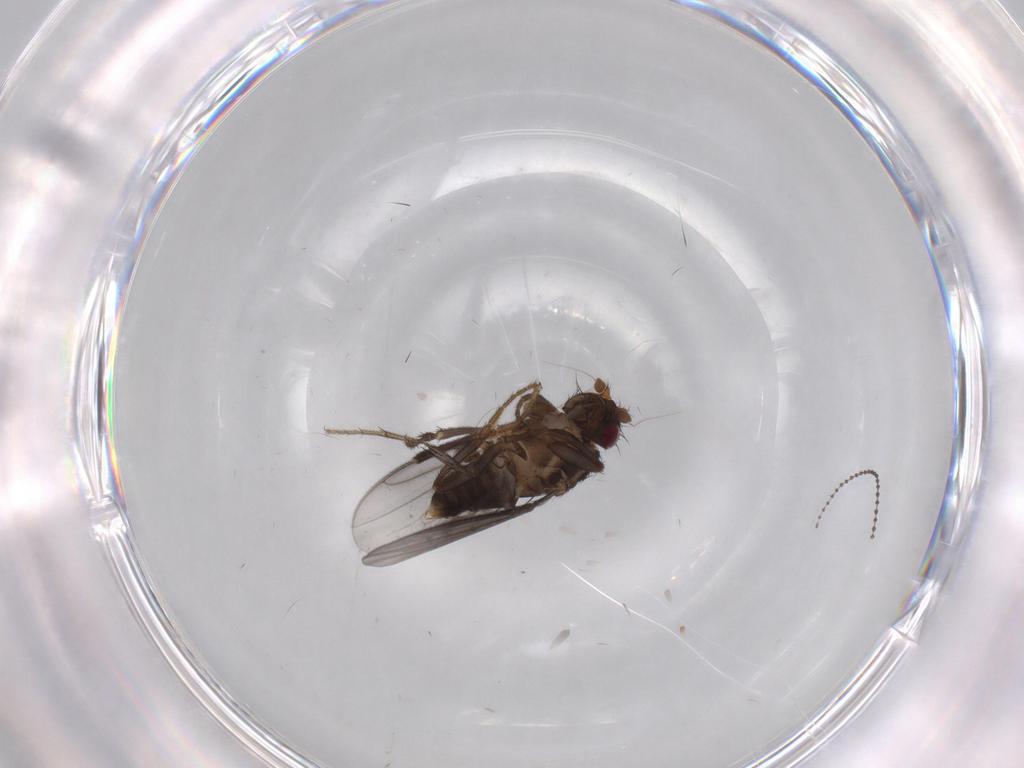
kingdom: Animalia
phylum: Arthropoda
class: Insecta
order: Diptera
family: Sphaeroceridae
